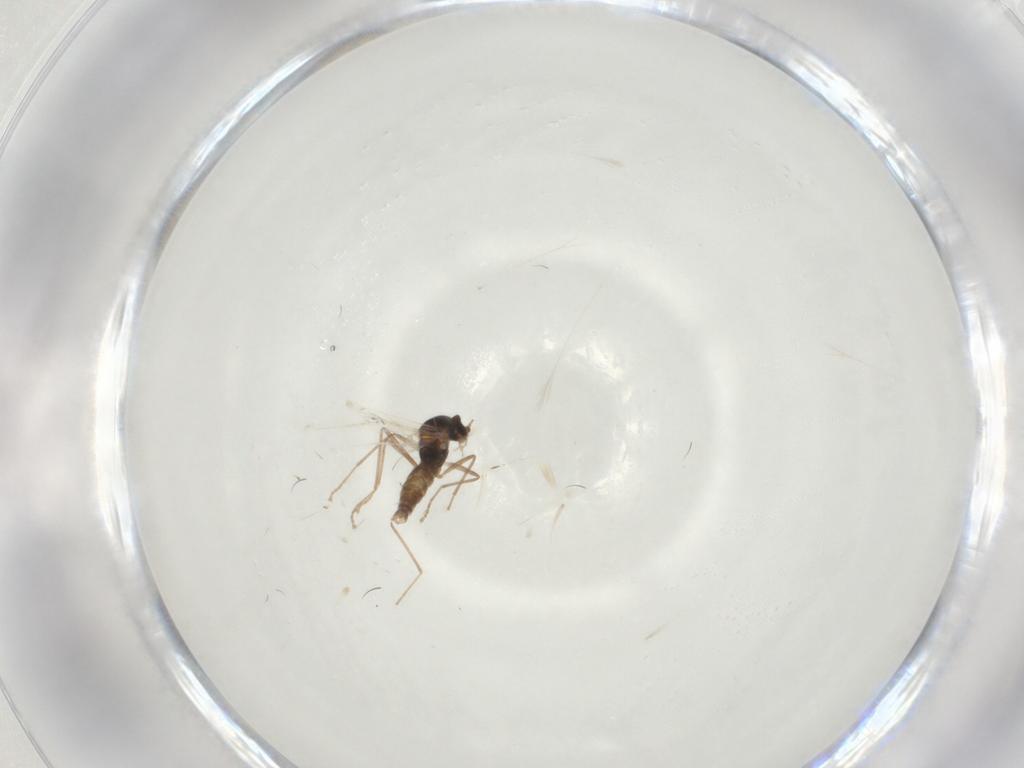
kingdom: Animalia
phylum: Arthropoda
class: Insecta
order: Diptera
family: Cecidomyiidae
